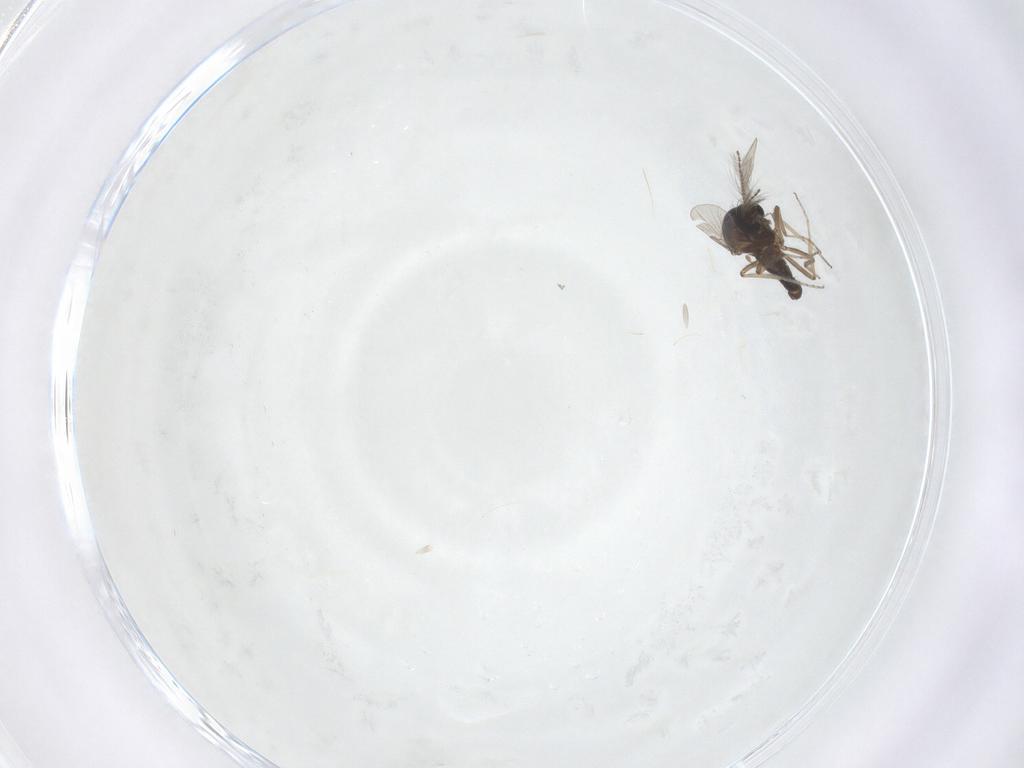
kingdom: Animalia
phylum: Arthropoda
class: Insecta
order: Diptera
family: Ceratopogonidae
